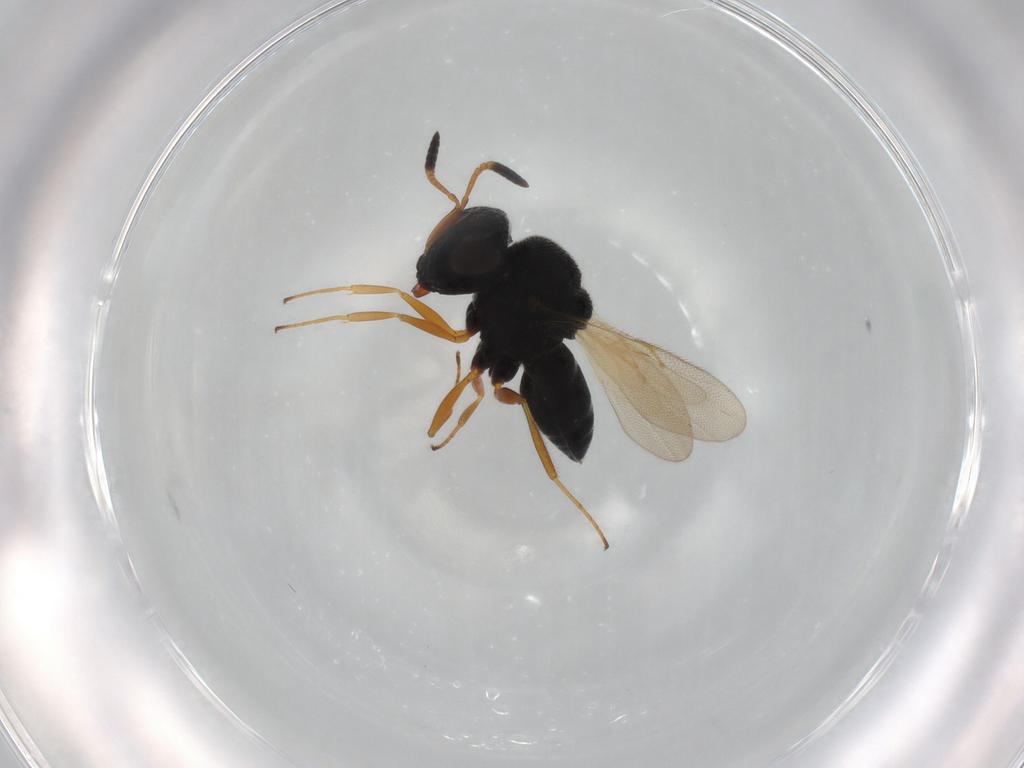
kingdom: Animalia
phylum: Arthropoda
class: Insecta
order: Hymenoptera
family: Scelionidae
